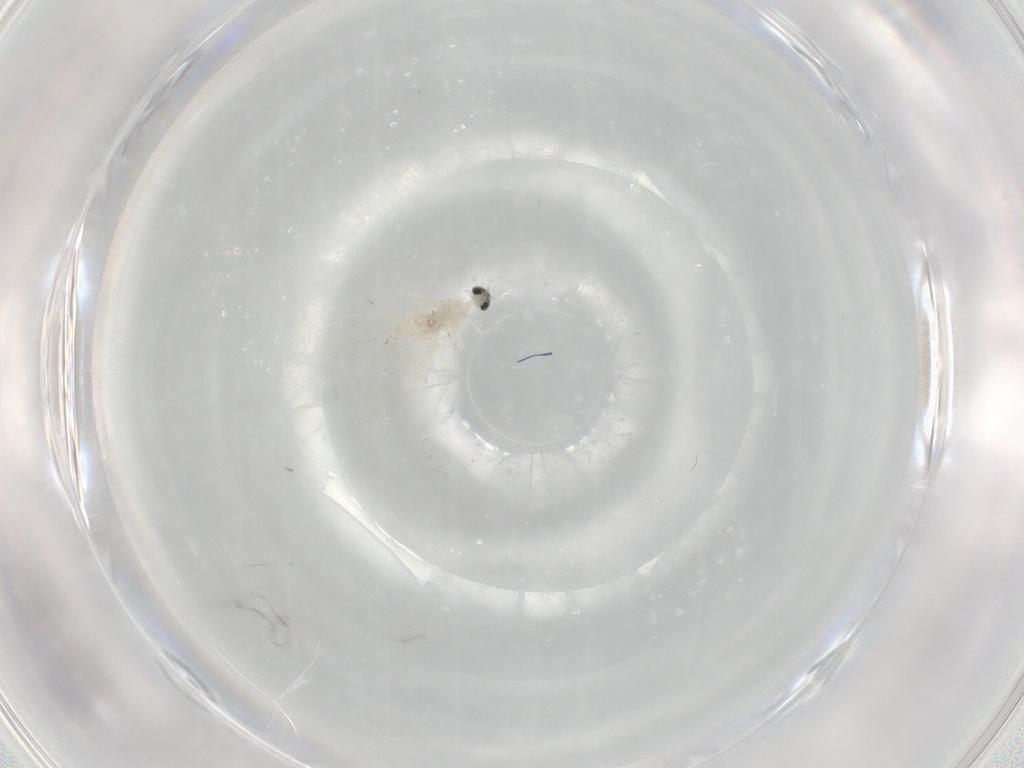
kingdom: Animalia
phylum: Arthropoda
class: Insecta
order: Diptera
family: Cecidomyiidae
